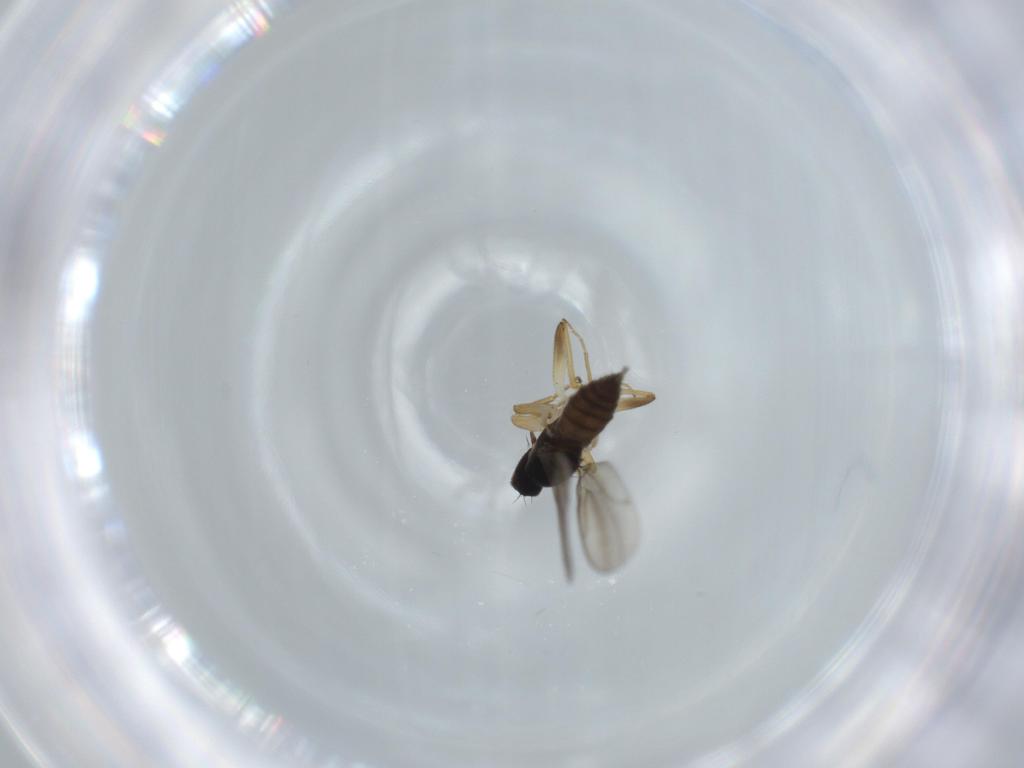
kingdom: Animalia
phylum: Arthropoda
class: Insecta
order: Diptera
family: Hybotidae
